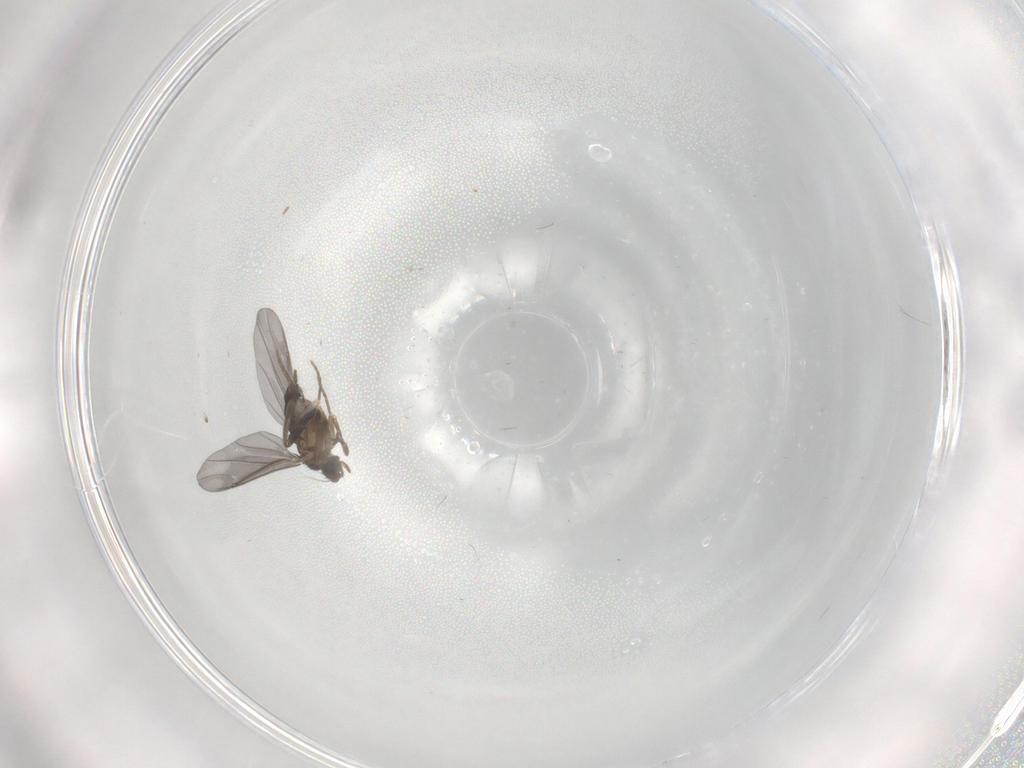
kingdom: Animalia
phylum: Arthropoda
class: Insecta
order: Diptera
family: Phoridae
